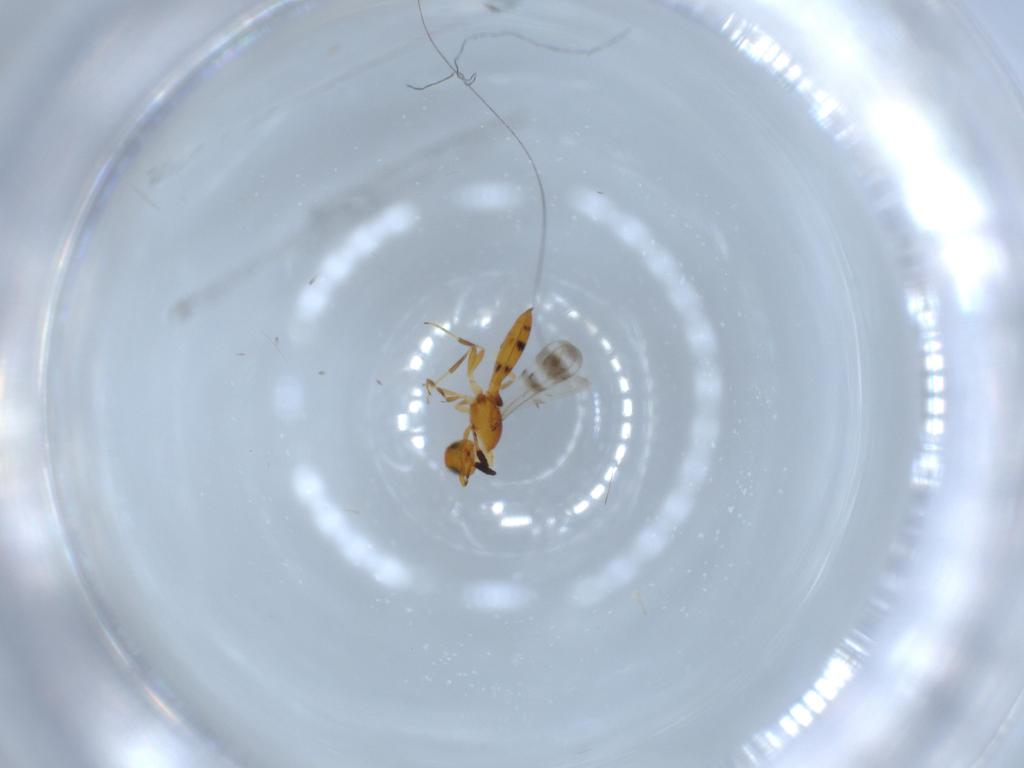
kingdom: Animalia
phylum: Arthropoda
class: Insecta
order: Hymenoptera
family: Scelionidae
